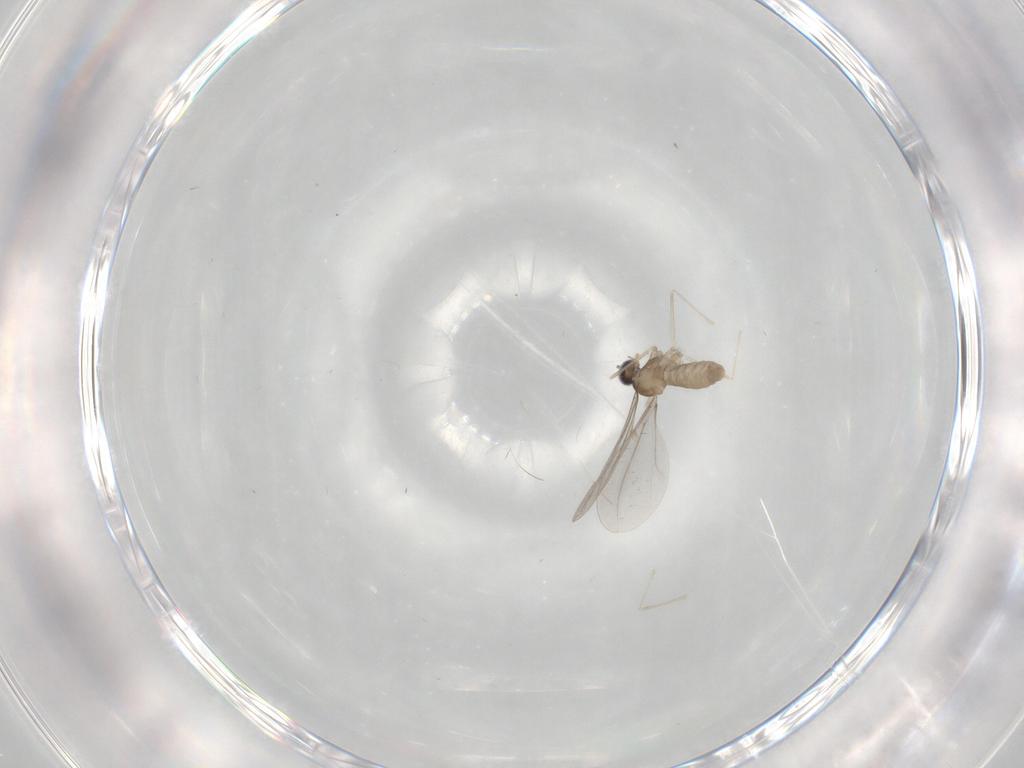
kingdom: Animalia
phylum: Arthropoda
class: Insecta
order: Diptera
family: Cecidomyiidae
